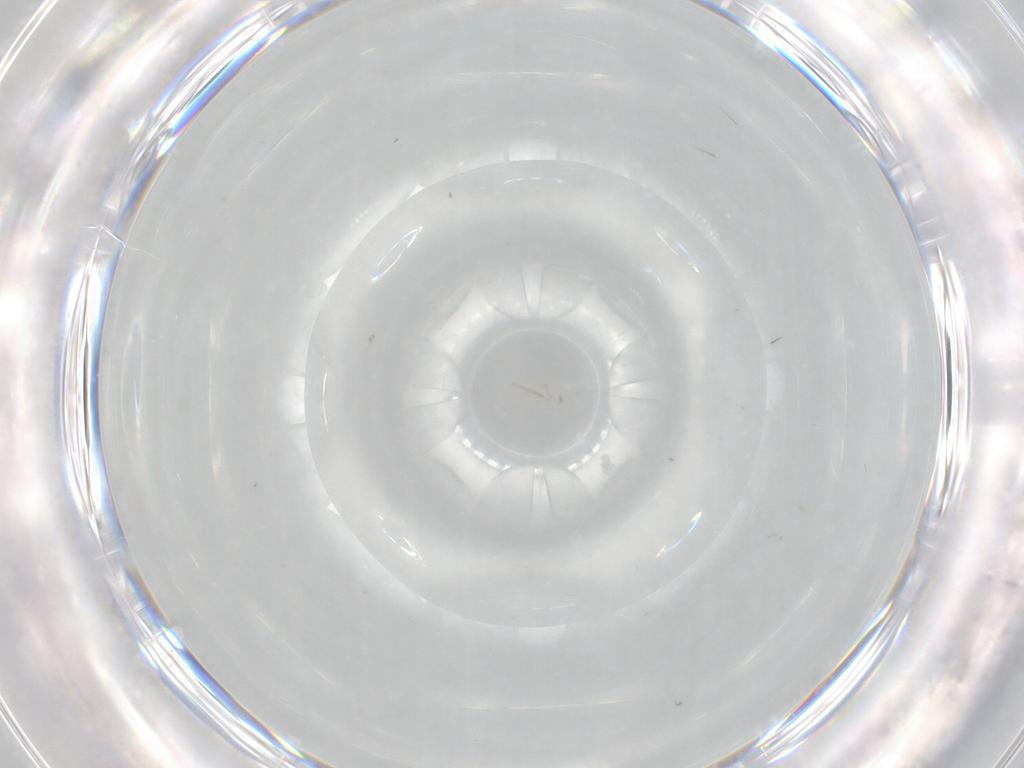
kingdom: Animalia
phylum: Arthropoda
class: Insecta
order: Diptera
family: Ceratopogonidae
